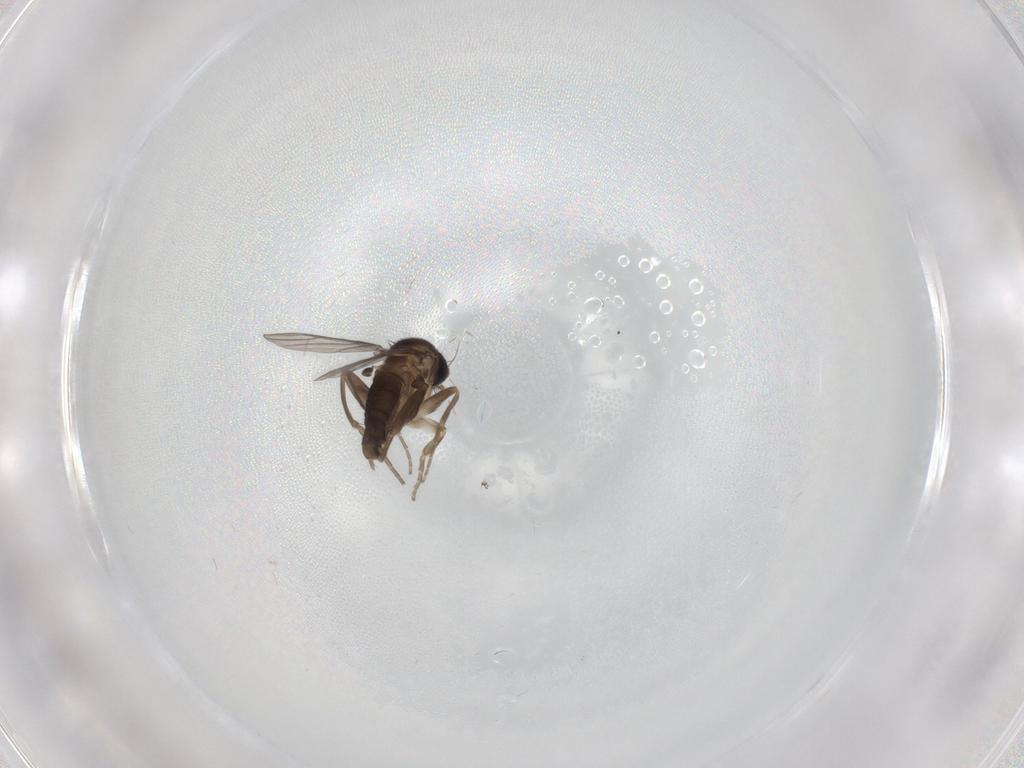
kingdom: Animalia
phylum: Arthropoda
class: Insecta
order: Diptera
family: Phoridae
